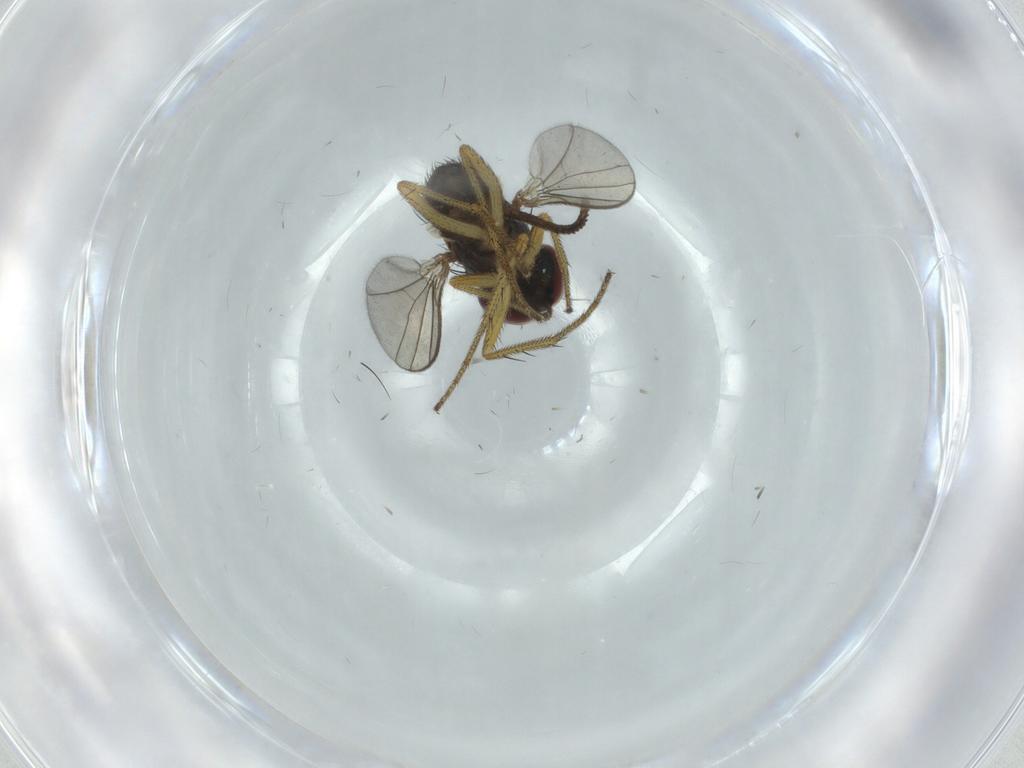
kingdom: Animalia
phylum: Arthropoda
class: Insecta
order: Diptera
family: Dolichopodidae
